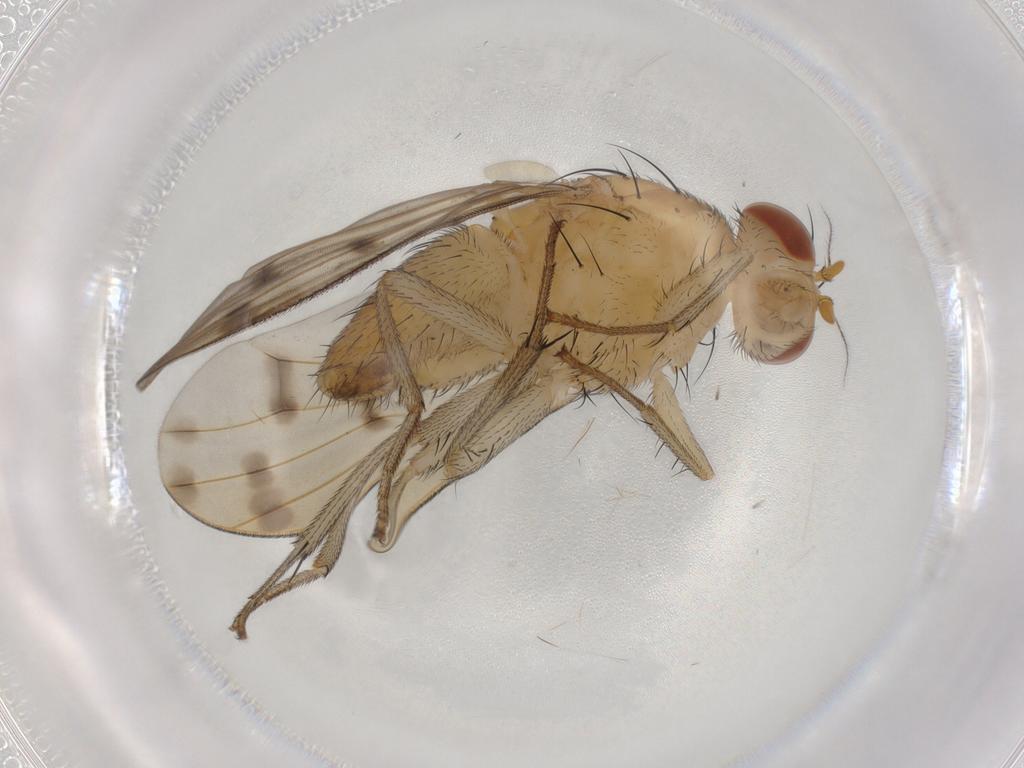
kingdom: Animalia
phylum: Arthropoda
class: Insecta
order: Diptera
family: Lauxaniidae
